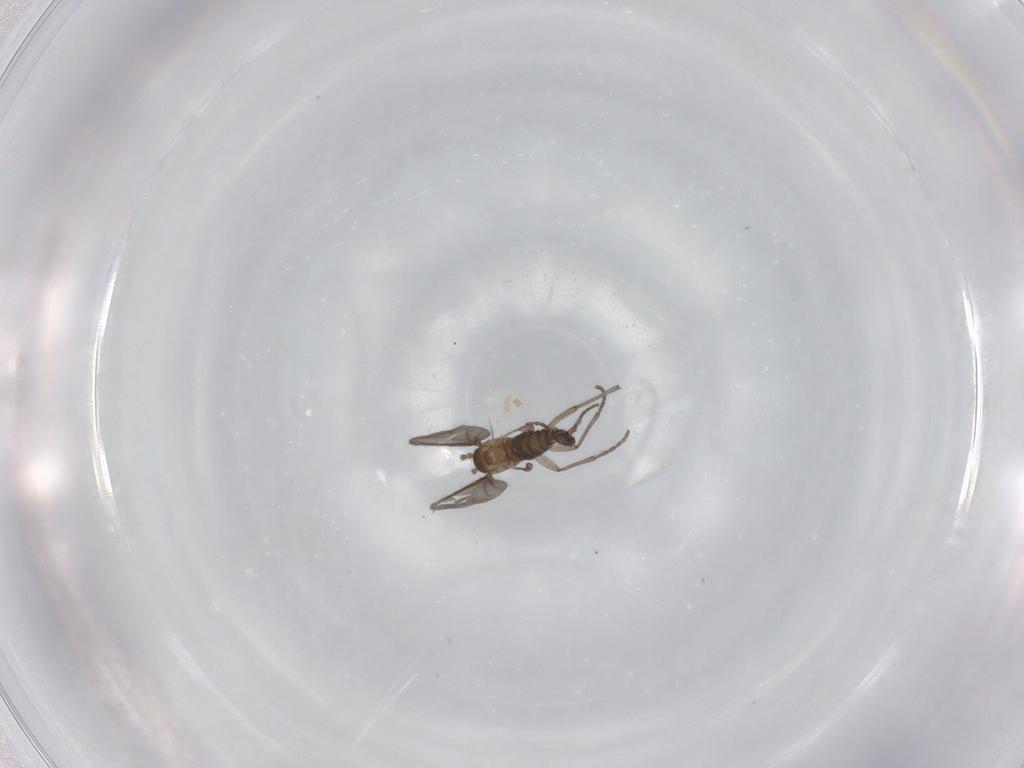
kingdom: Animalia
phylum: Arthropoda
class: Insecta
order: Diptera
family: Sciaridae
